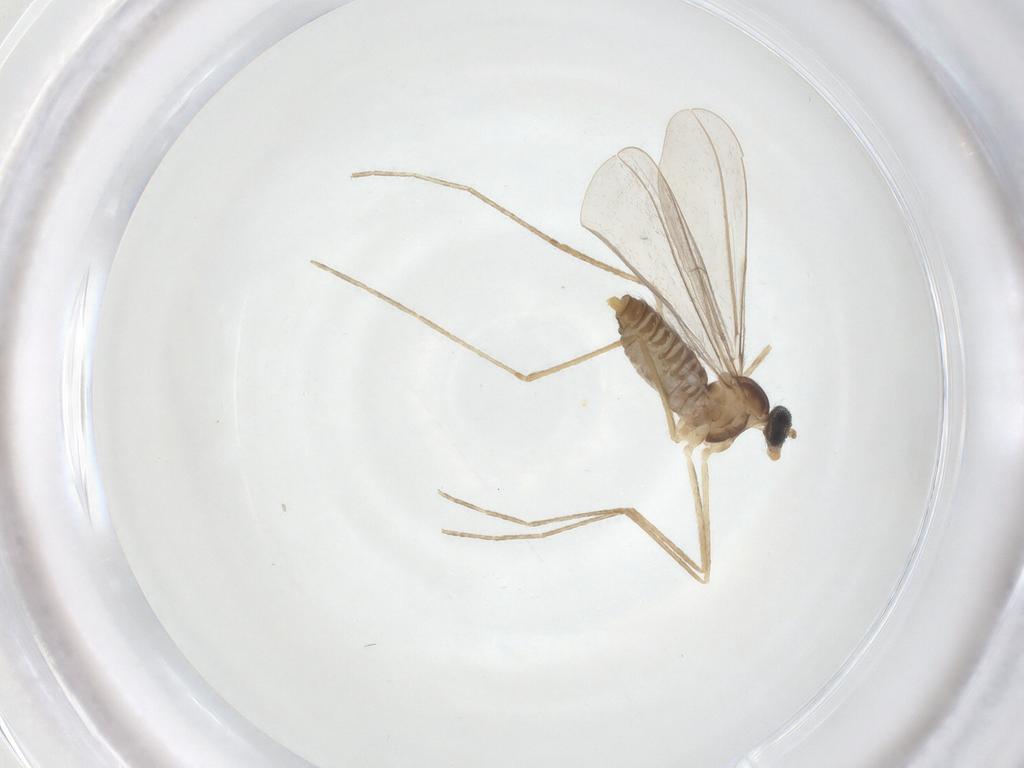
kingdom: Animalia
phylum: Arthropoda
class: Insecta
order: Diptera
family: Cecidomyiidae
